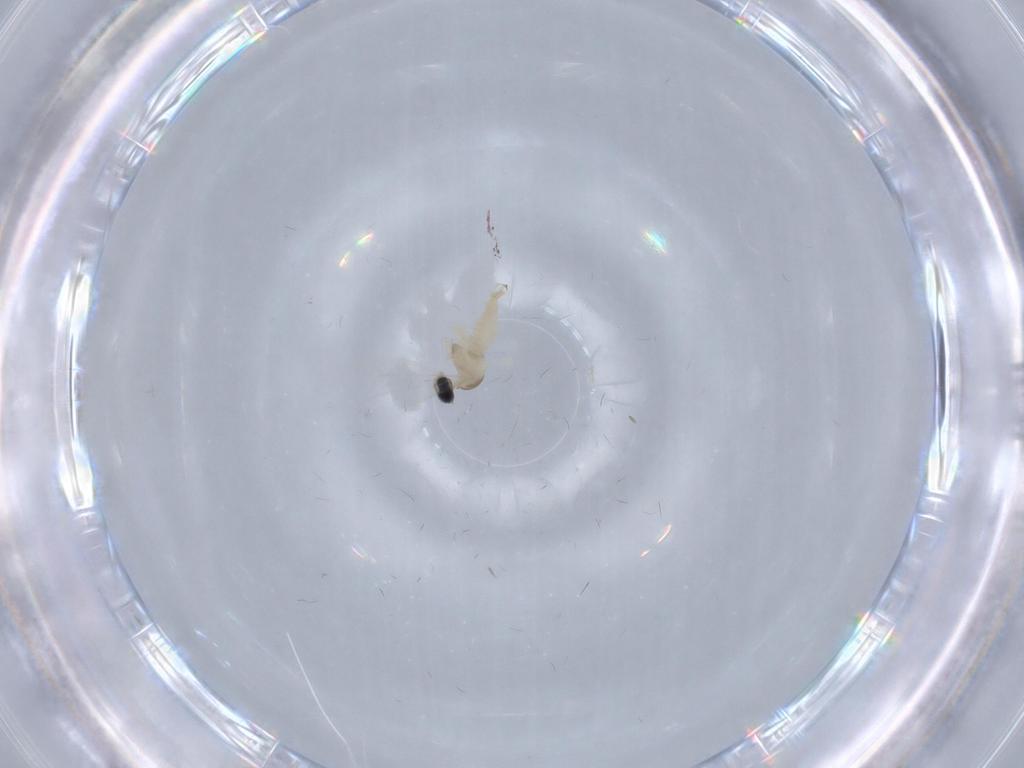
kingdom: Animalia
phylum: Arthropoda
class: Insecta
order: Diptera
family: Cecidomyiidae
